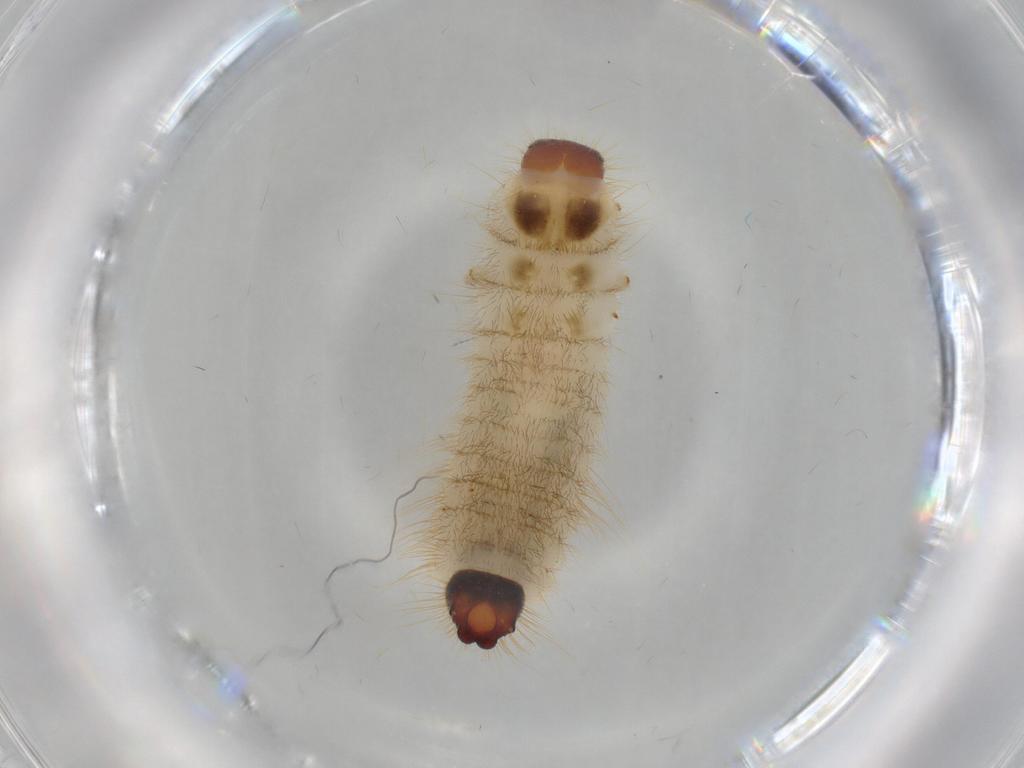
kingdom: Animalia
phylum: Arthropoda
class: Insecta
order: Coleoptera
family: Rhadalidae
